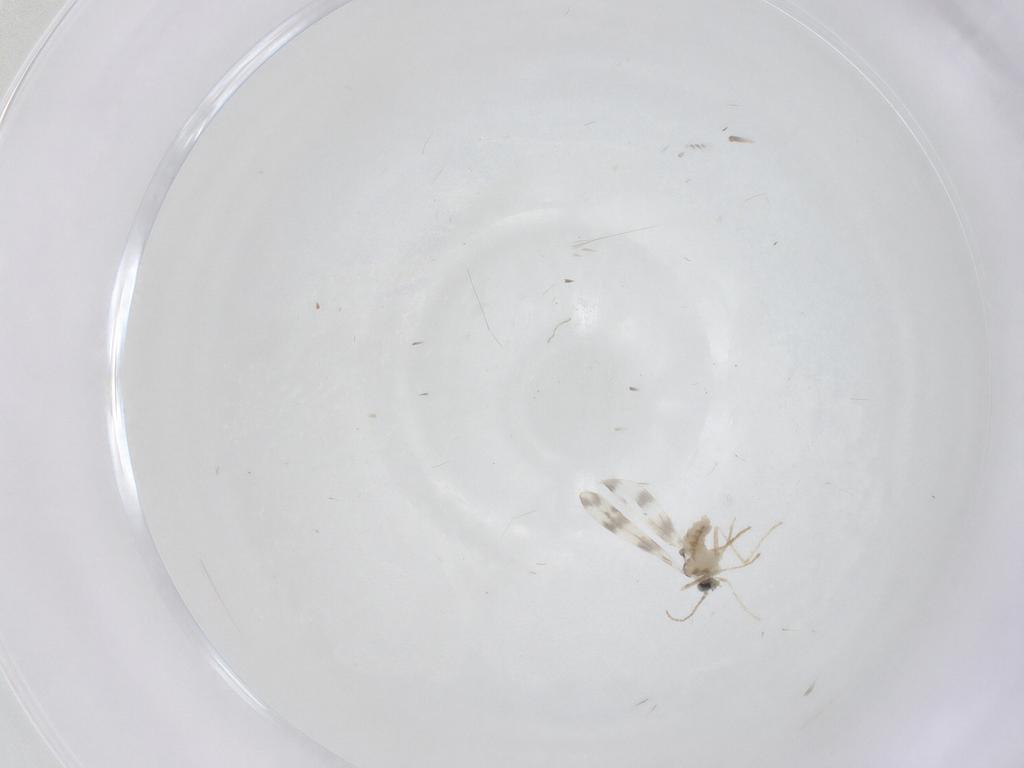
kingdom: Animalia
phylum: Arthropoda
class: Insecta
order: Diptera
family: Cecidomyiidae
